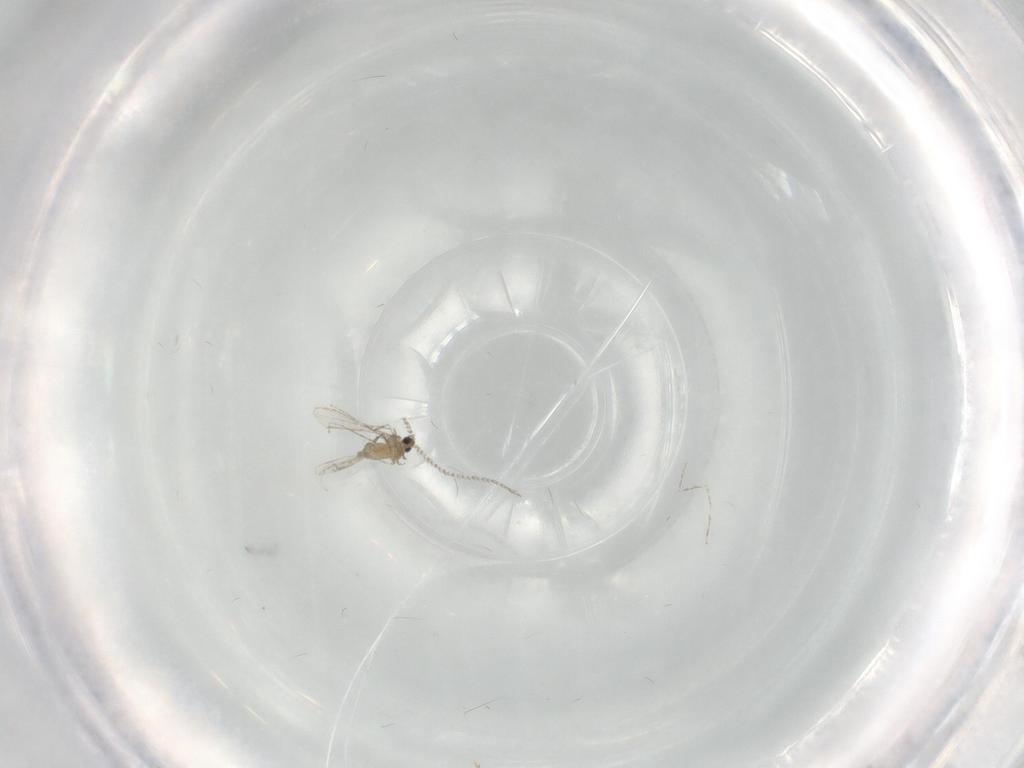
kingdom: Animalia
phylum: Arthropoda
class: Insecta
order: Diptera
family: Cecidomyiidae
